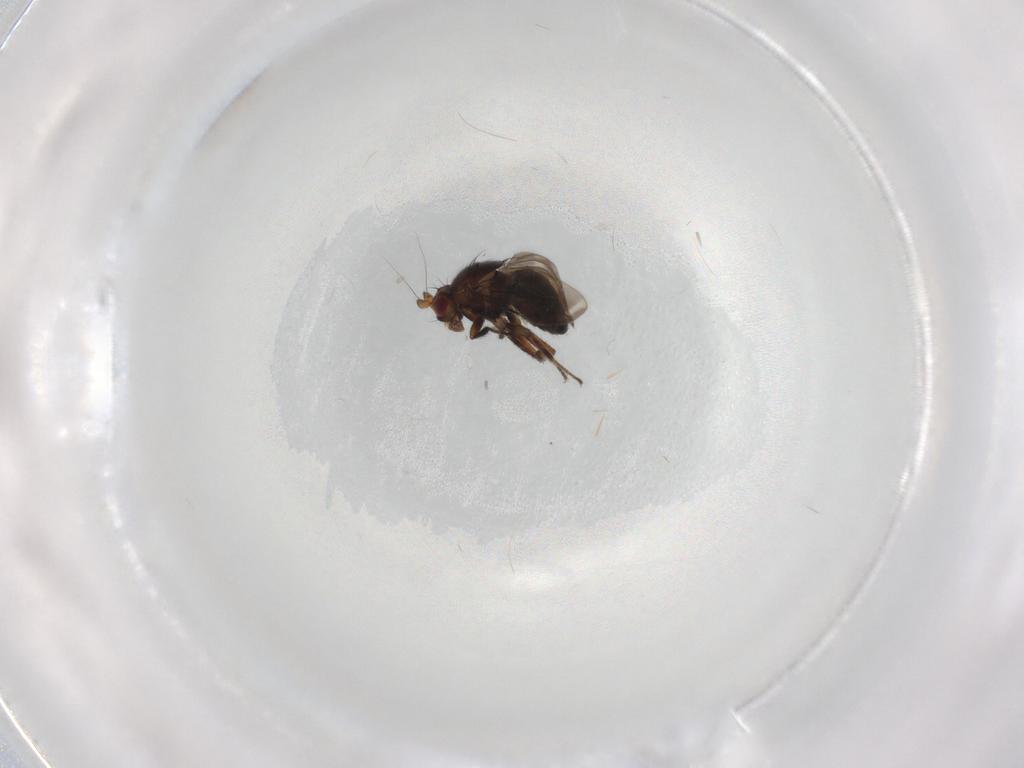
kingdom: Animalia
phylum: Arthropoda
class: Insecta
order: Diptera
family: Sphaeroceridae
